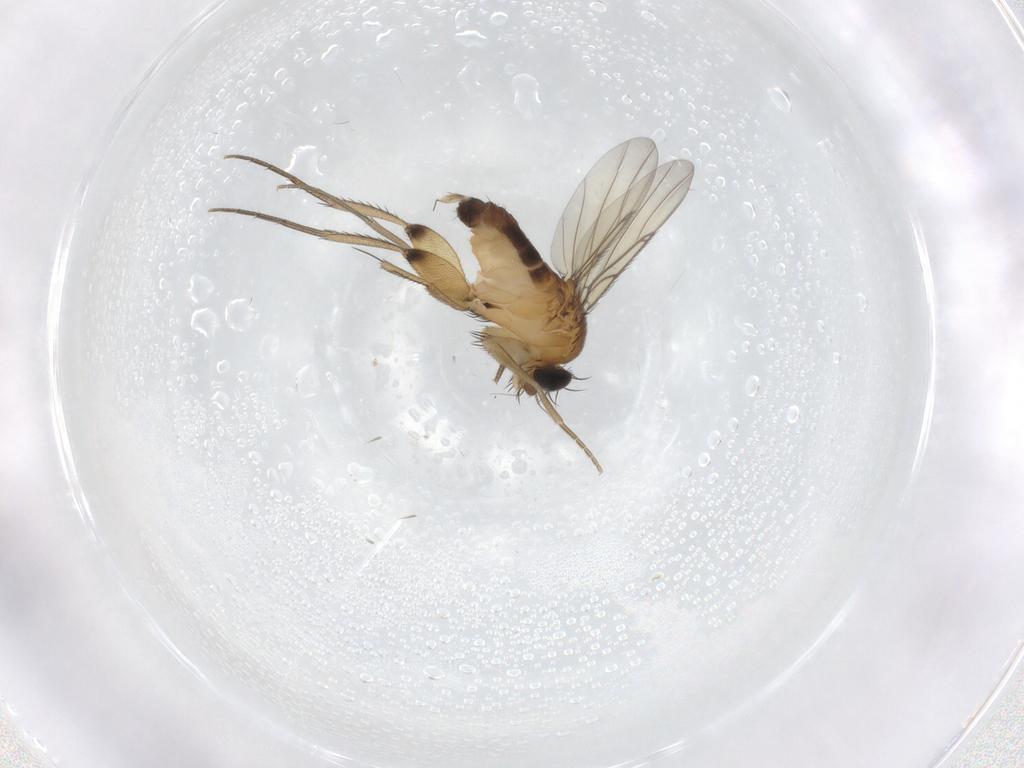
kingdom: Animalia
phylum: Arthropoda
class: Insecta
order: Diptera
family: Phoridae
